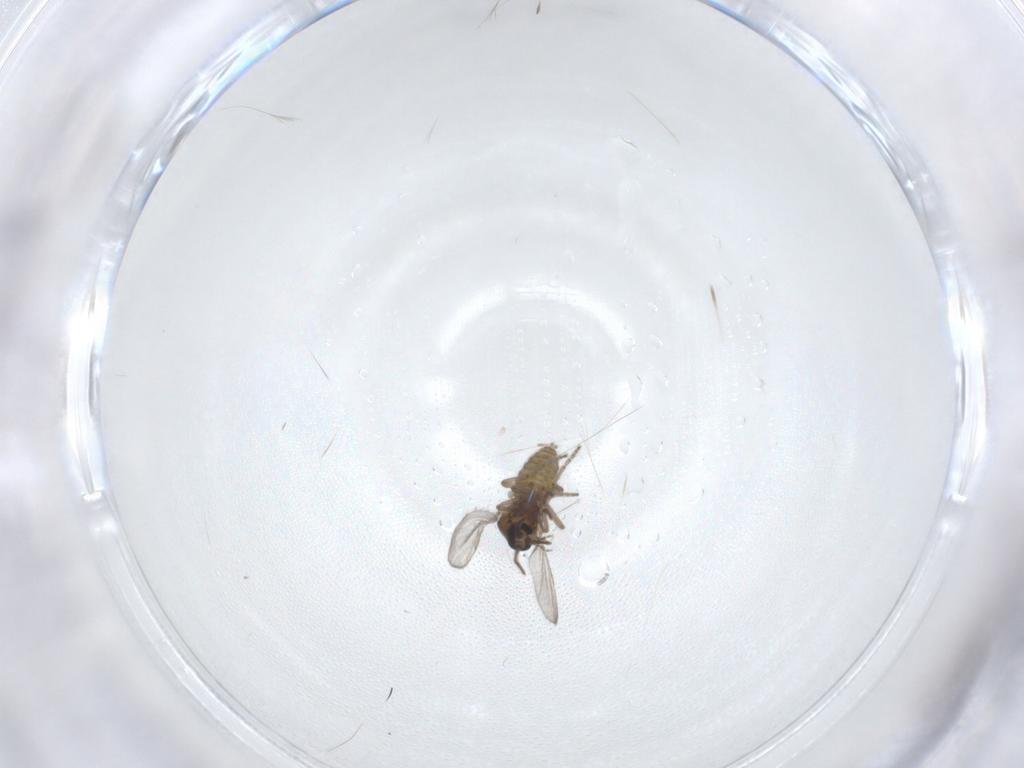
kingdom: Animalia
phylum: Arthropoda
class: Insecta
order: Diptera
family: Ceratopogonidae
